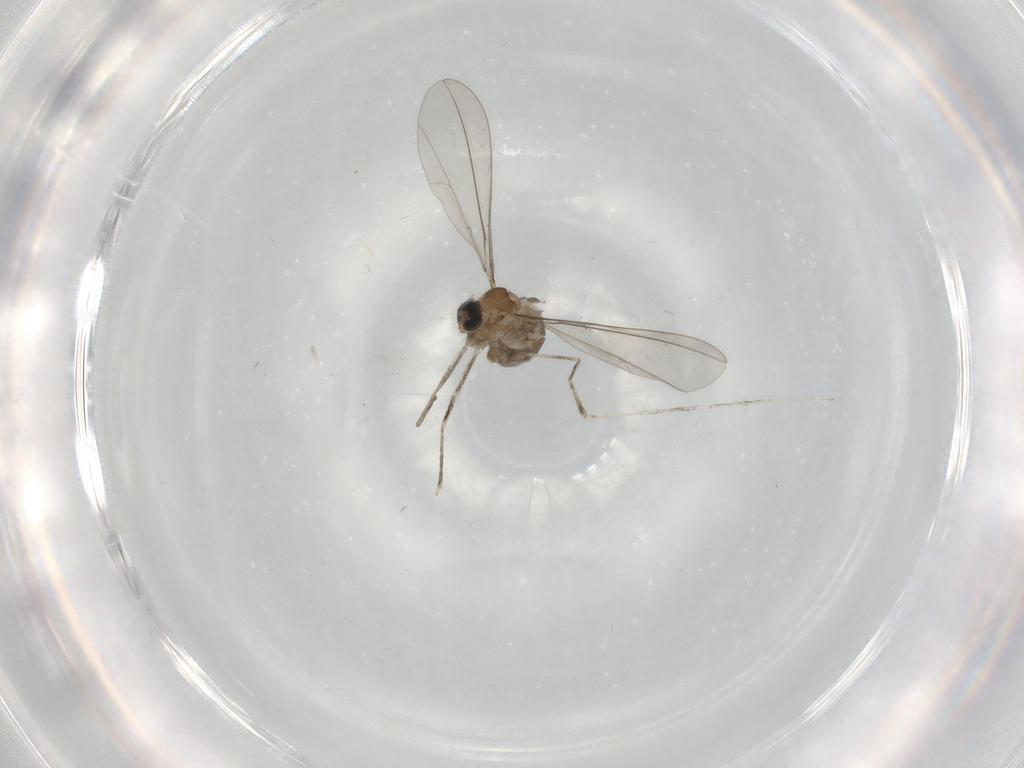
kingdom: Animalia
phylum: Arthropoda
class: Insecta
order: Diptera
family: Cecidomyiidae
